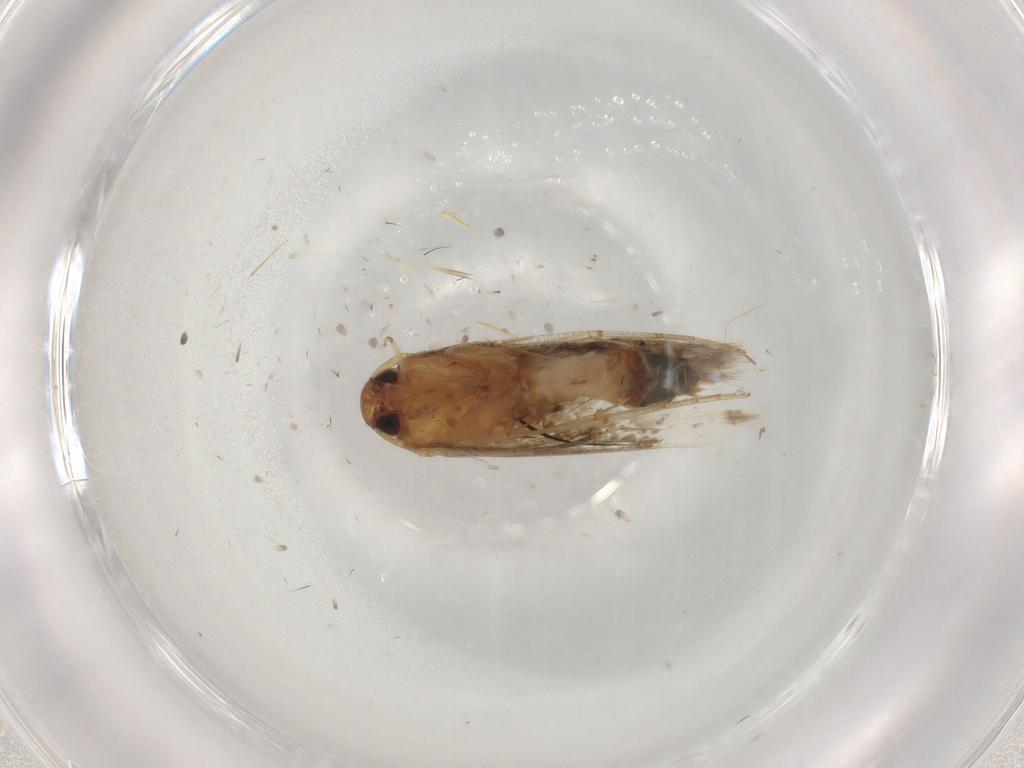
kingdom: Animalia
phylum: Arthropoda
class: Insecta
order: Lepidoptera
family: Cosmopterigidae
